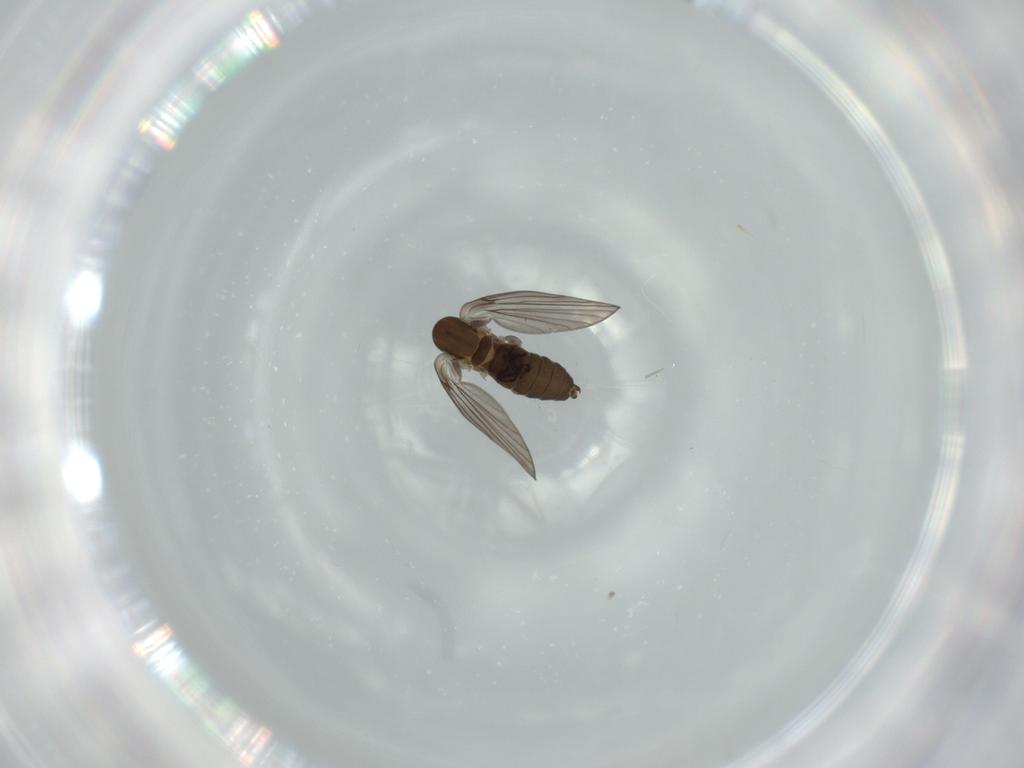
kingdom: Animalia
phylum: Arthropoda
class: Insecta
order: Diptera
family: Psychodidae
